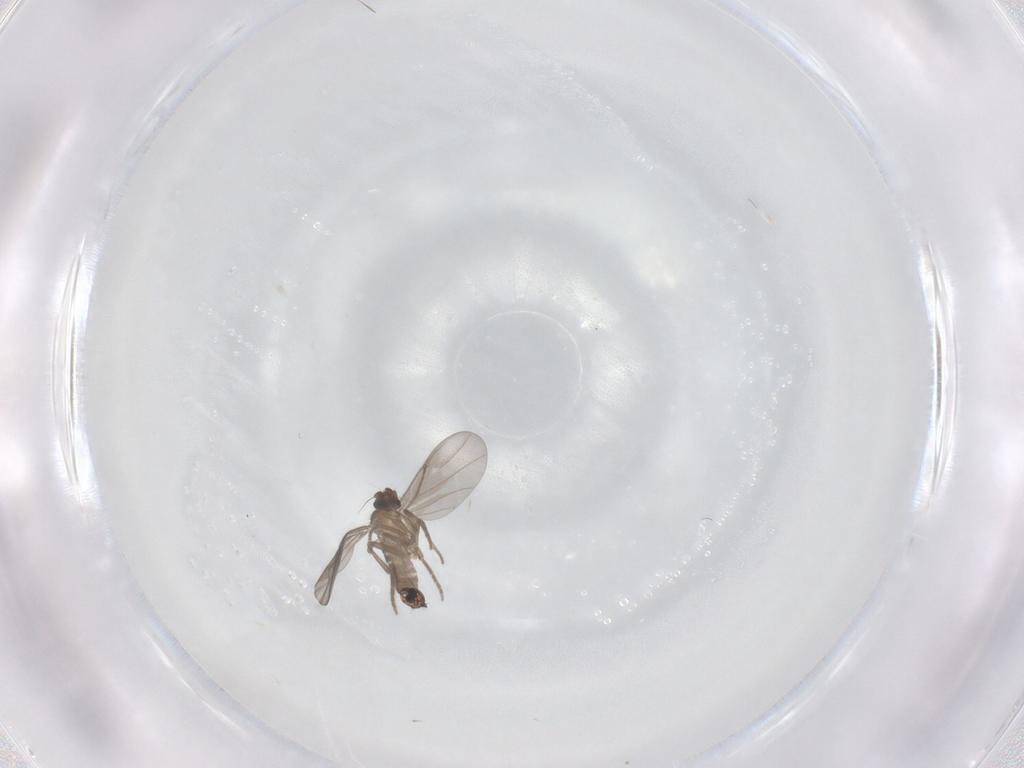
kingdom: Animalia
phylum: Arthropoda
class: Insecta
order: Diptera
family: Phoridae
